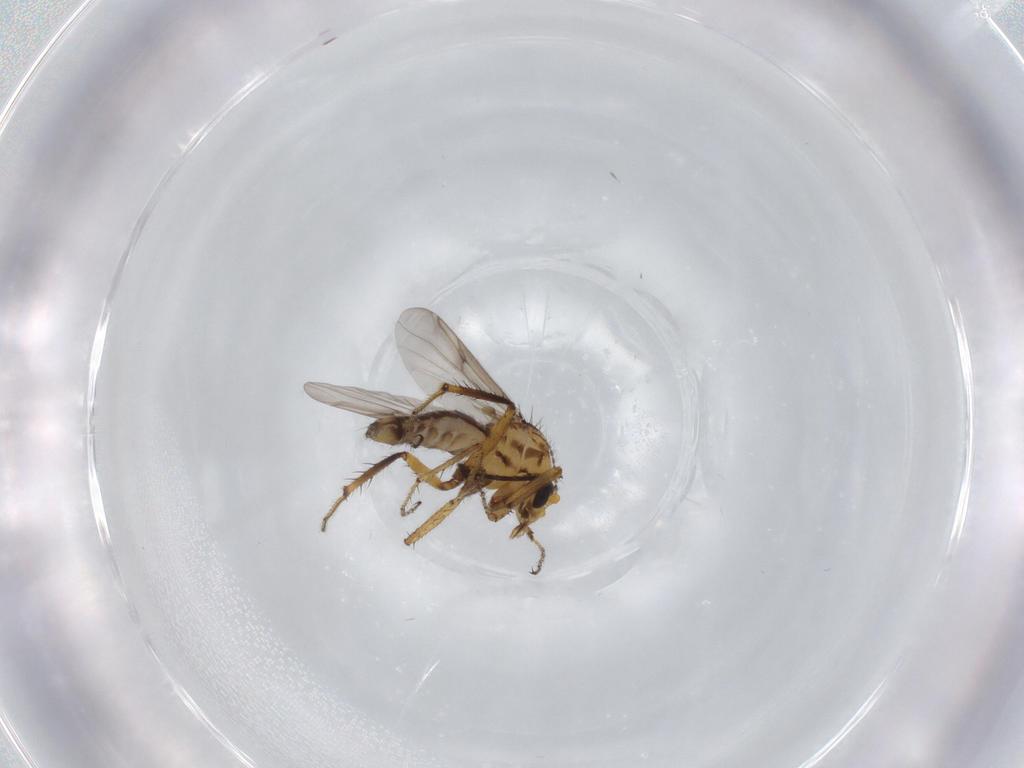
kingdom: Animalia
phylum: Arthropoda
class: Insecta
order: Diptera
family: Ceratopogonidae
